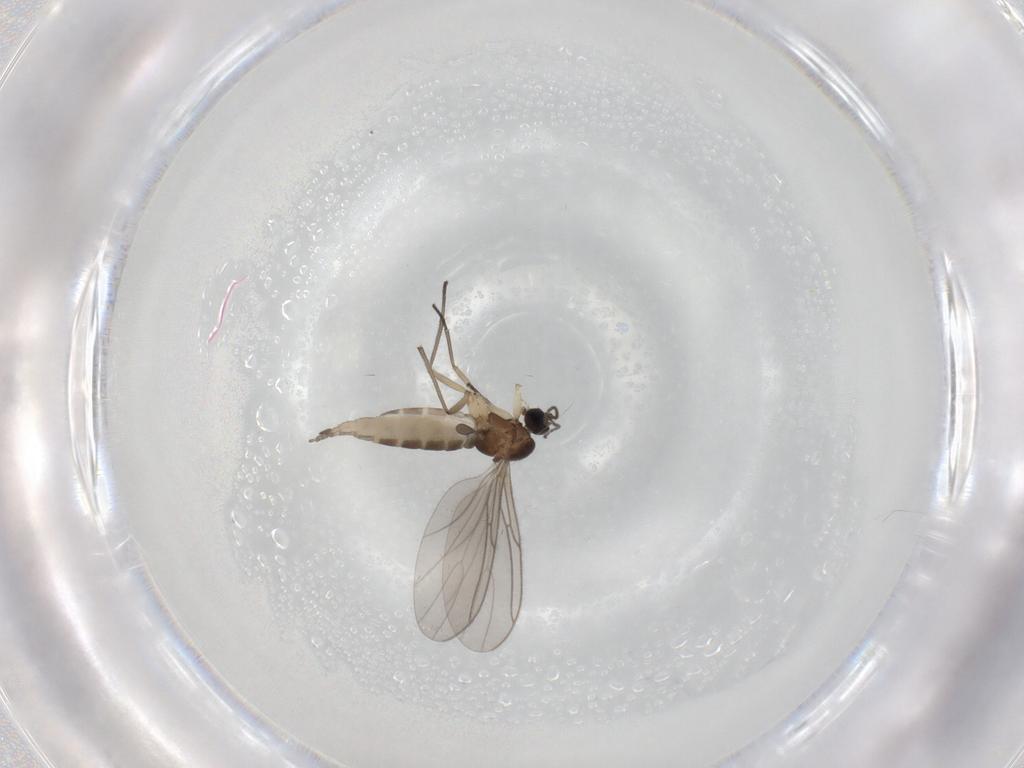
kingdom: Animalia
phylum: Arthropoda
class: Insecta
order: Diptera
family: Sciaridae
